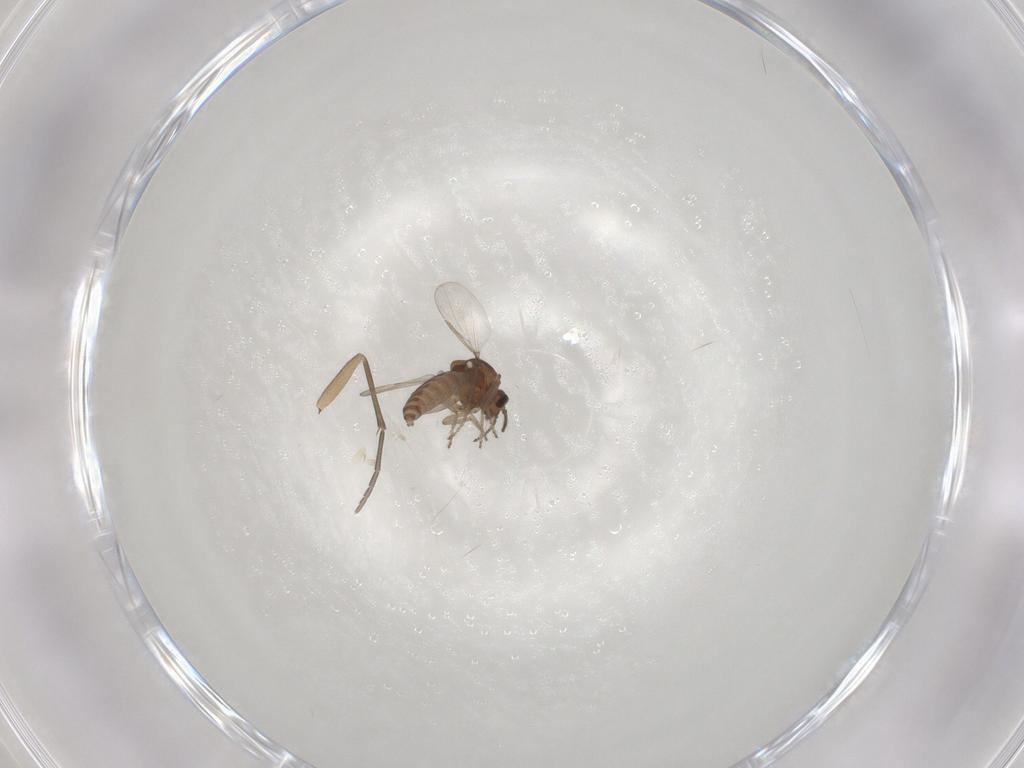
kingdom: Animalia
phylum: Arthropoda
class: Insecta
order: Diptera
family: Ceratopogonidae
